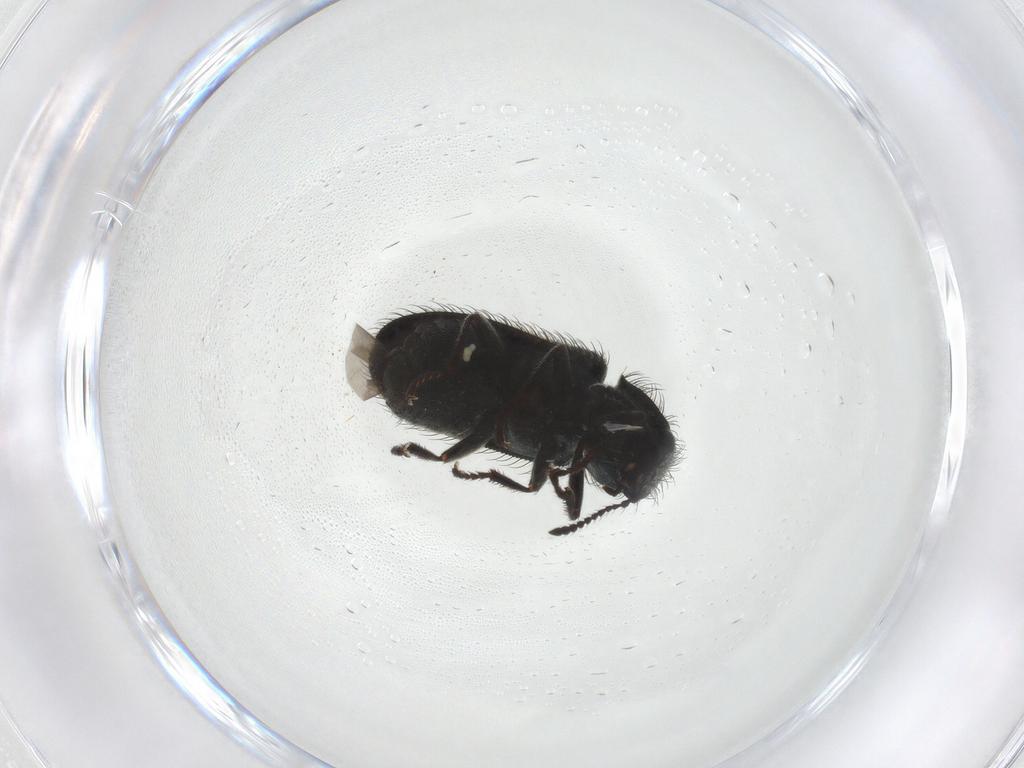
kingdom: Animalia
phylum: Arthropoda
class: Insecta
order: Coleoptera
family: Melyridae
